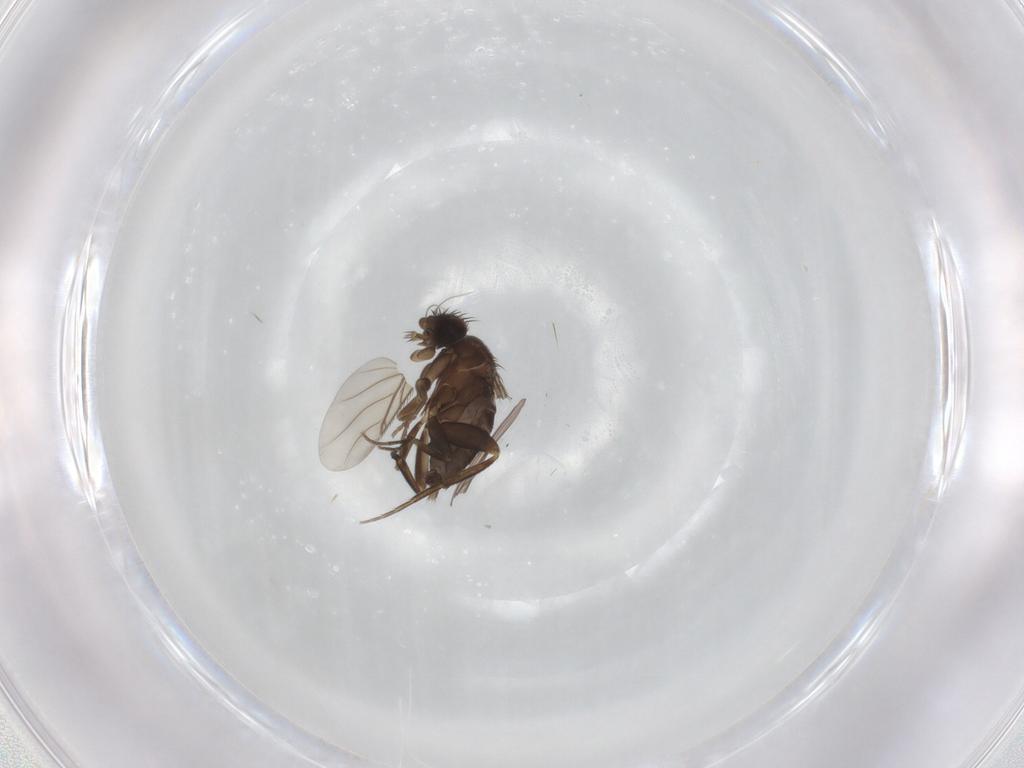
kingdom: Animalia
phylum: Arthropoda
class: Insecta
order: Diptera
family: Phoridae
